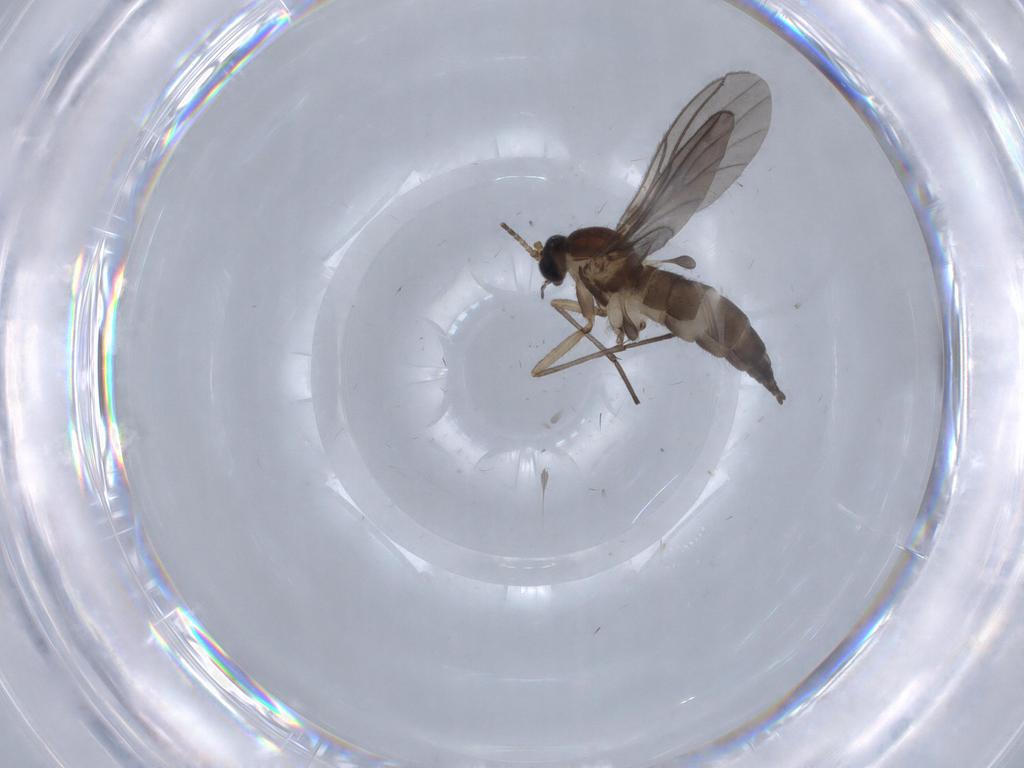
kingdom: Animalia
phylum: Arthropoda
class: Insecta
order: Diptera
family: Sciaridae
